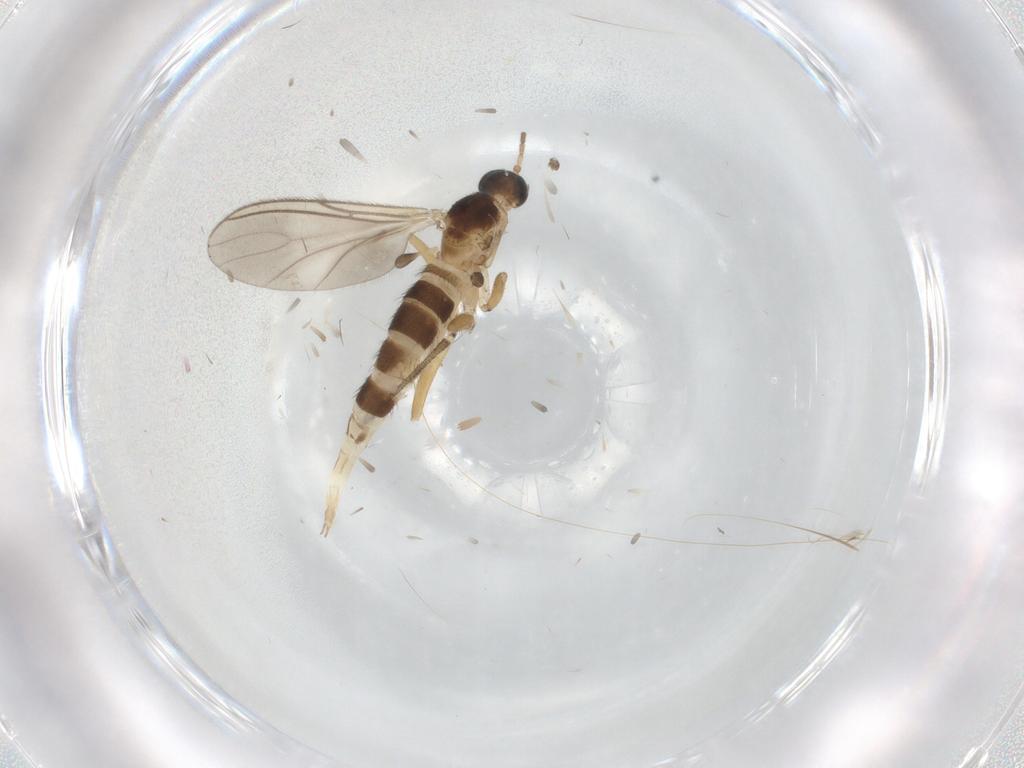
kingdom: Animalia
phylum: Arthropoda
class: Insecta
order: Diptera
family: Sciaridae
